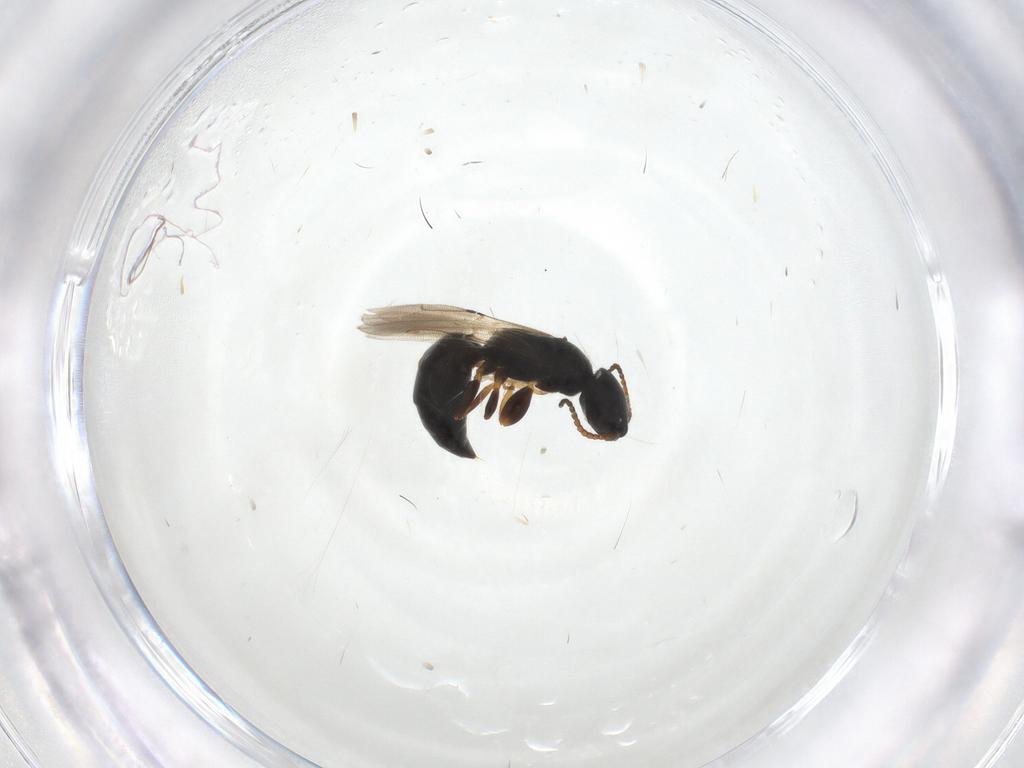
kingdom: Animalia
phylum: Arthropoda
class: Insecta
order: Hymenoptera
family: Bethylidae
